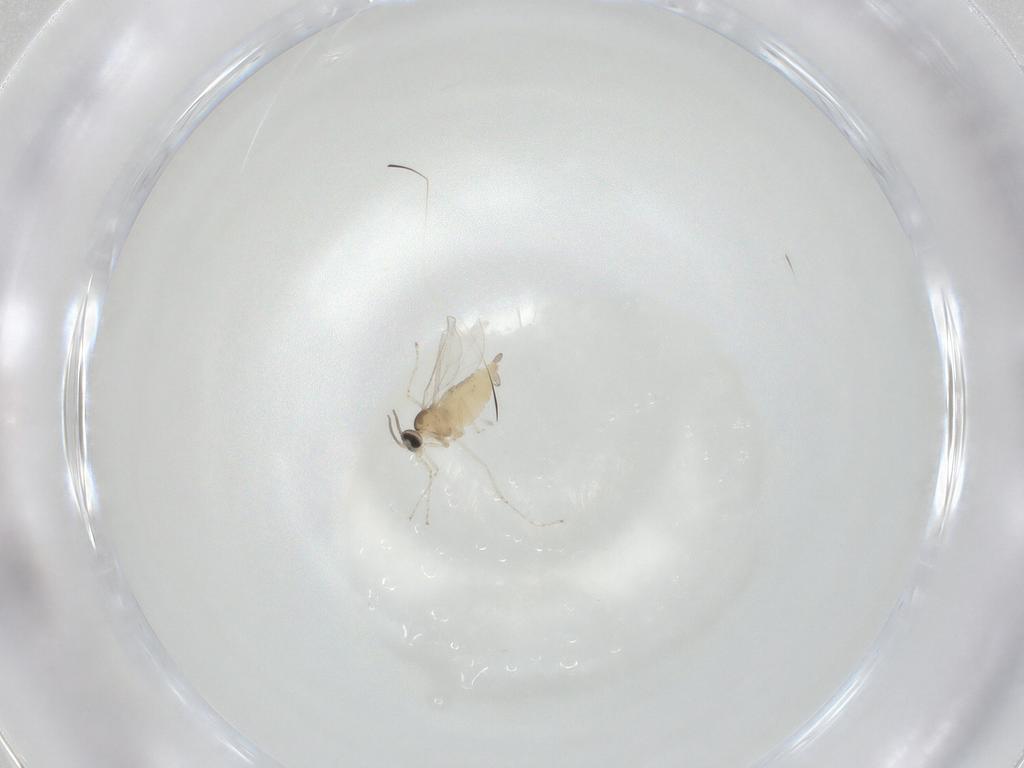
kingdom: Animalia
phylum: Arthropoda
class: Insecta
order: Diptera
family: Cecidomyiidae
